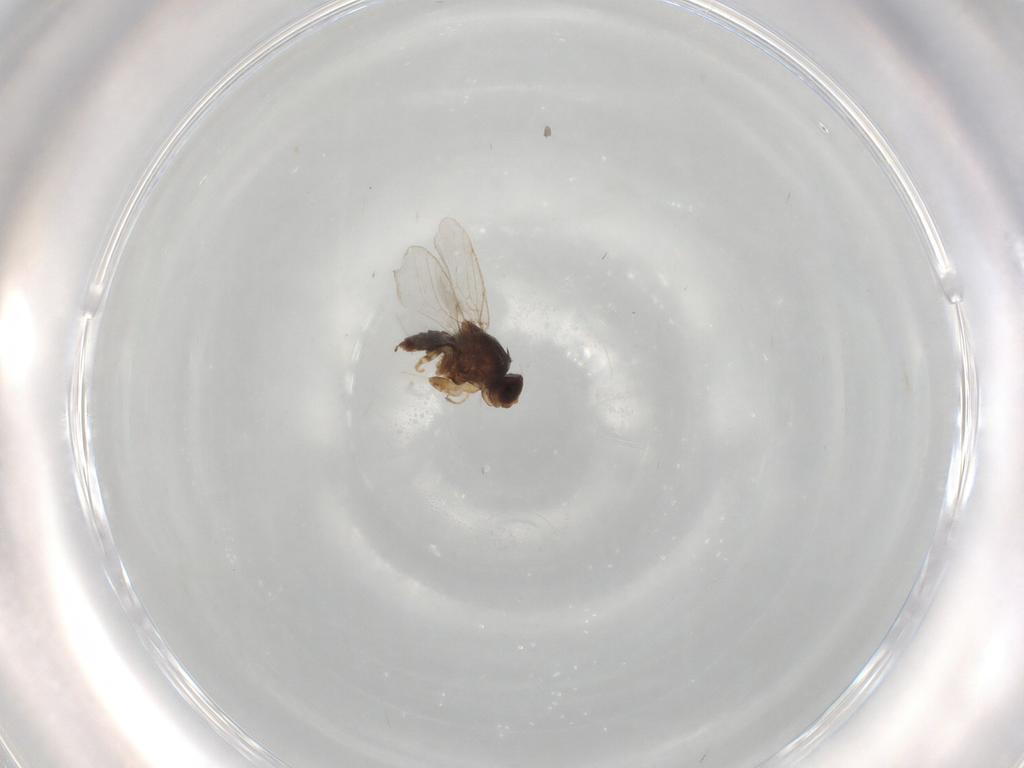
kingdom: Animalia
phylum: Arthropoda
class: Insecta
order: Diptera
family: Chloropidae
